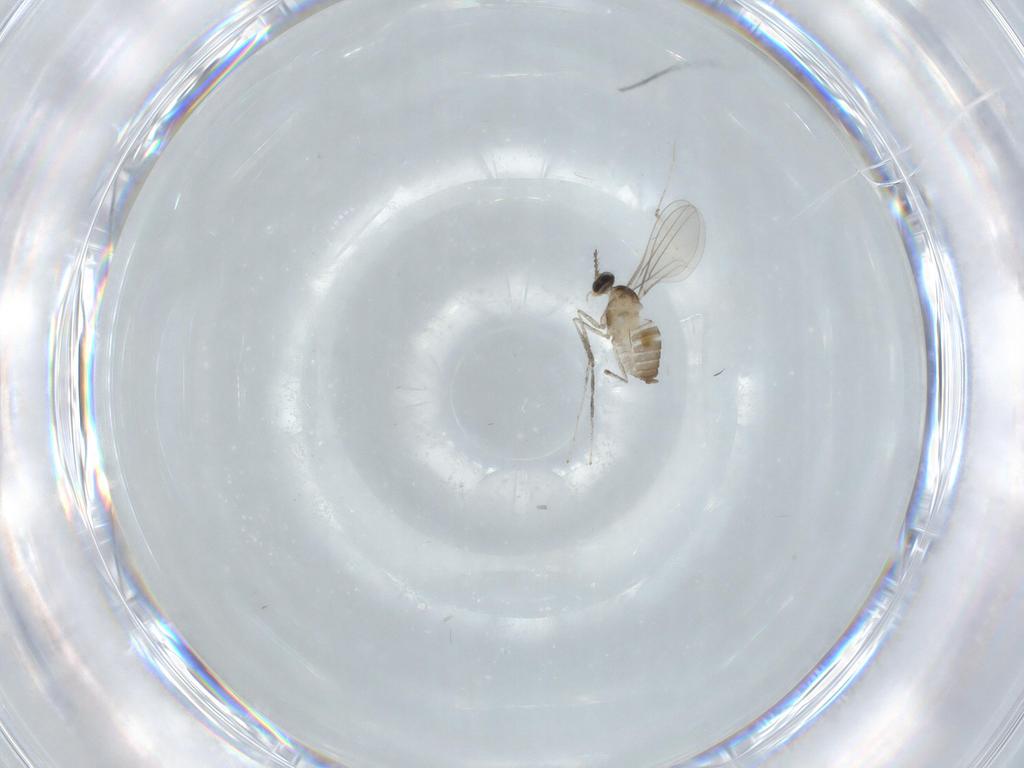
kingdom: Animalia
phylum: Arthropoda
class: Insecta
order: Diptera
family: Cecidomyiidae
